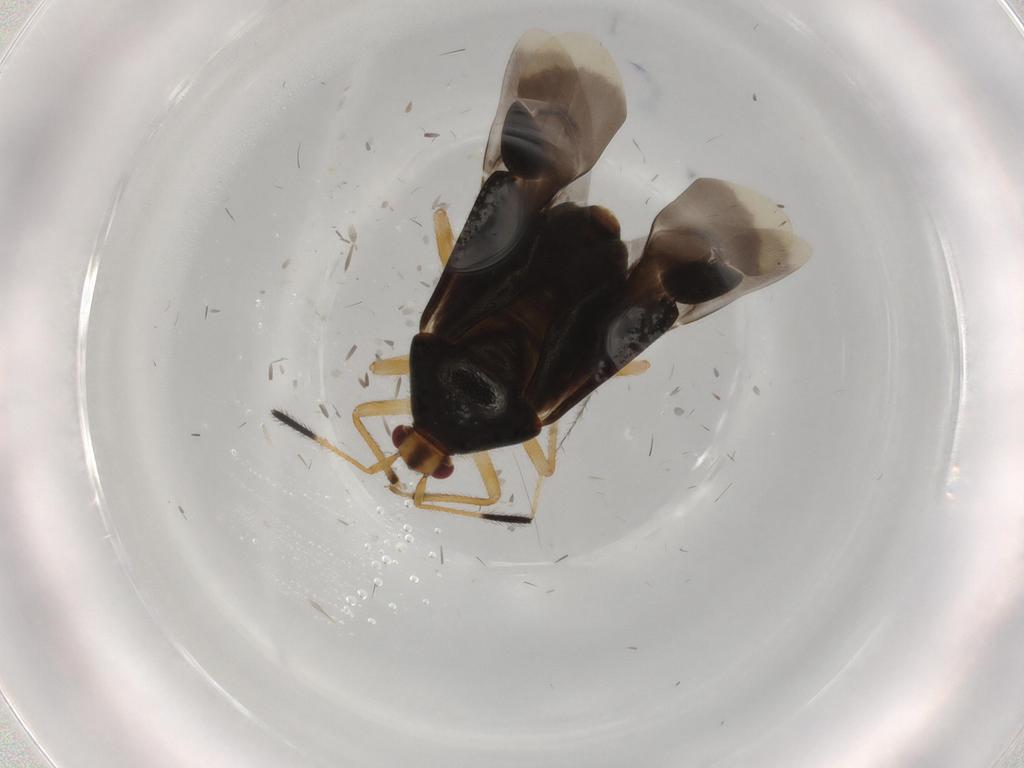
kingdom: Animalia
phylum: Arthropoda
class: Insecta
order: Hemiptera
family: Miridae
